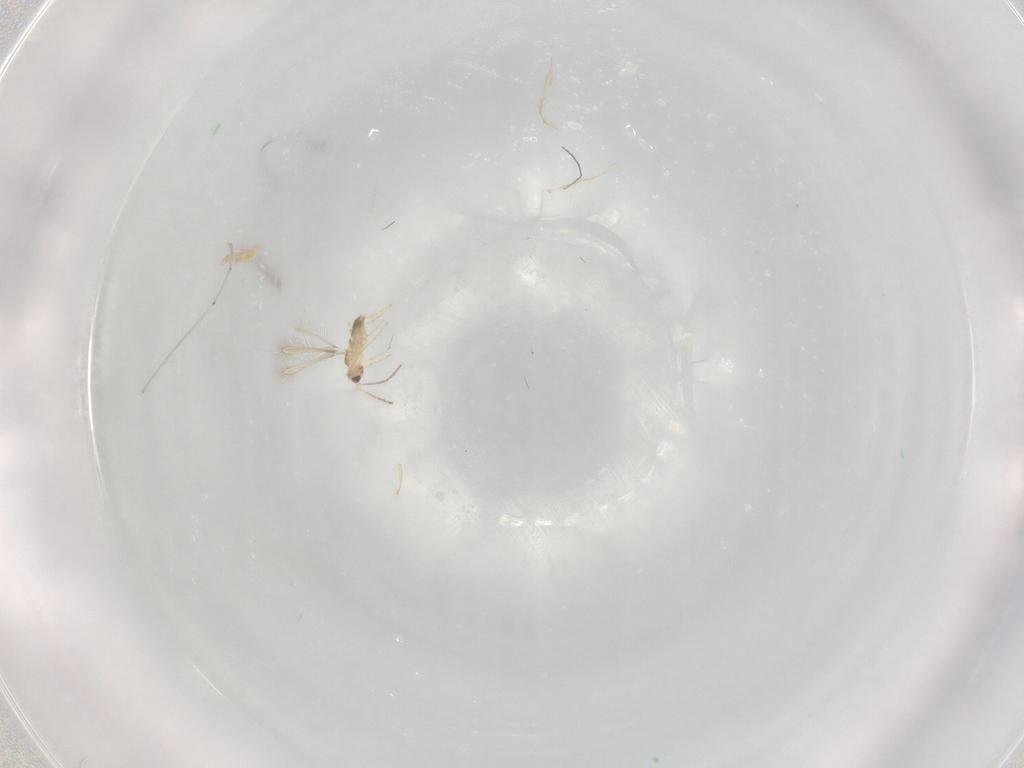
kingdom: Animalia
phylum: Arthropoda
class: Insecta
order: Hymenoptera
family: Mymaridae
